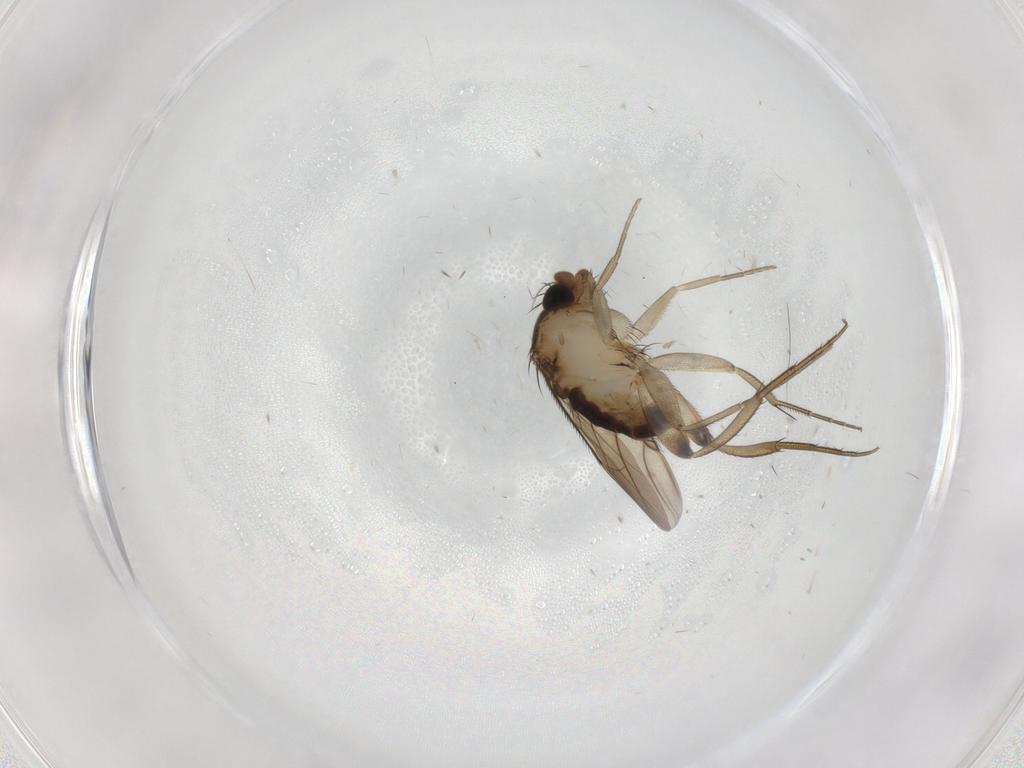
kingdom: Animalia
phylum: Arthropoda
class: Insecta
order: Diptera
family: Phoridae
